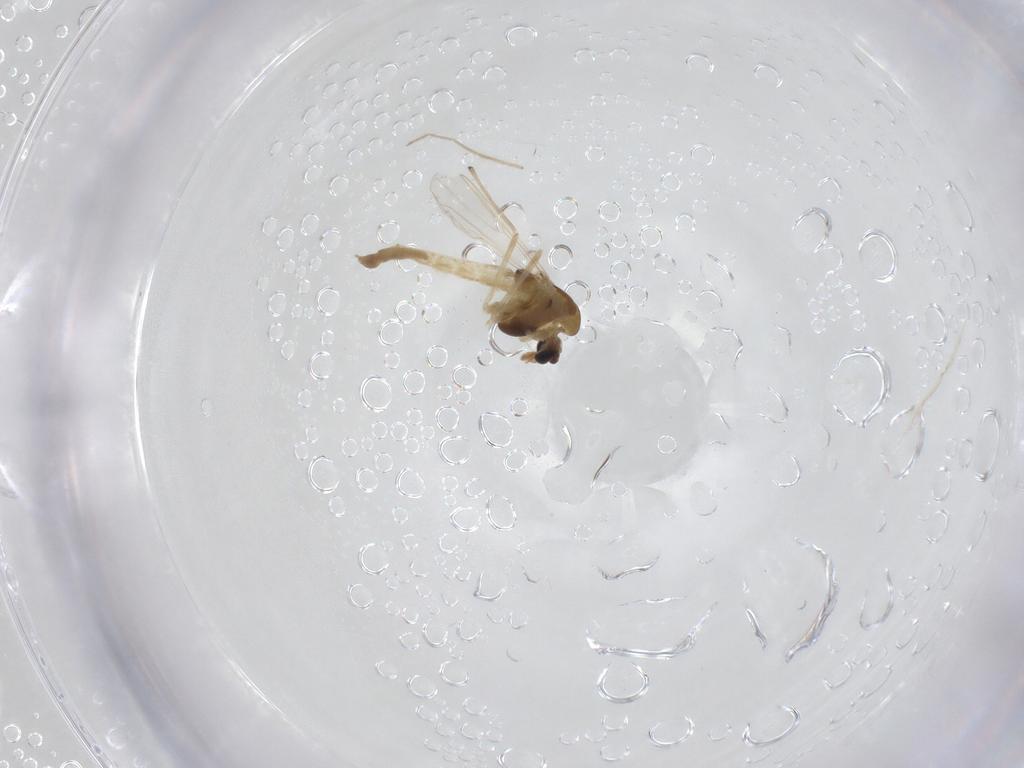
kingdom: Animalia
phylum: Arthropoda
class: Insecta
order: Diptera
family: Chironomidae
